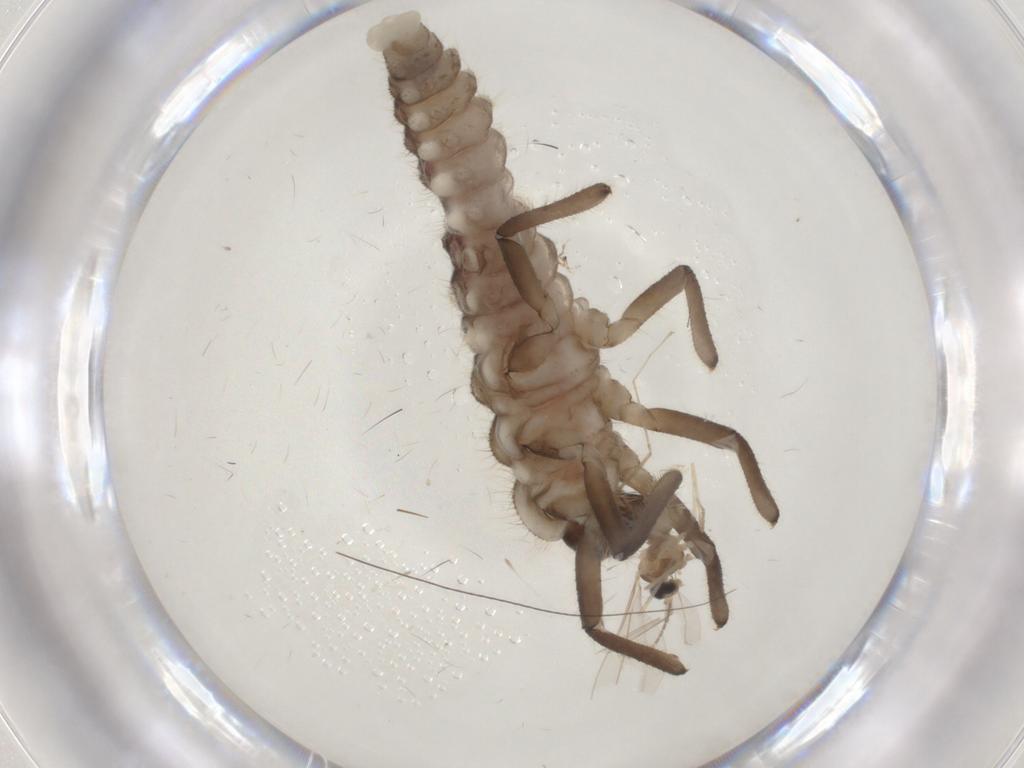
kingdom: Animalia
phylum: Arthropoda
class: Insecta
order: Diptera
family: Cecidomyiidae
